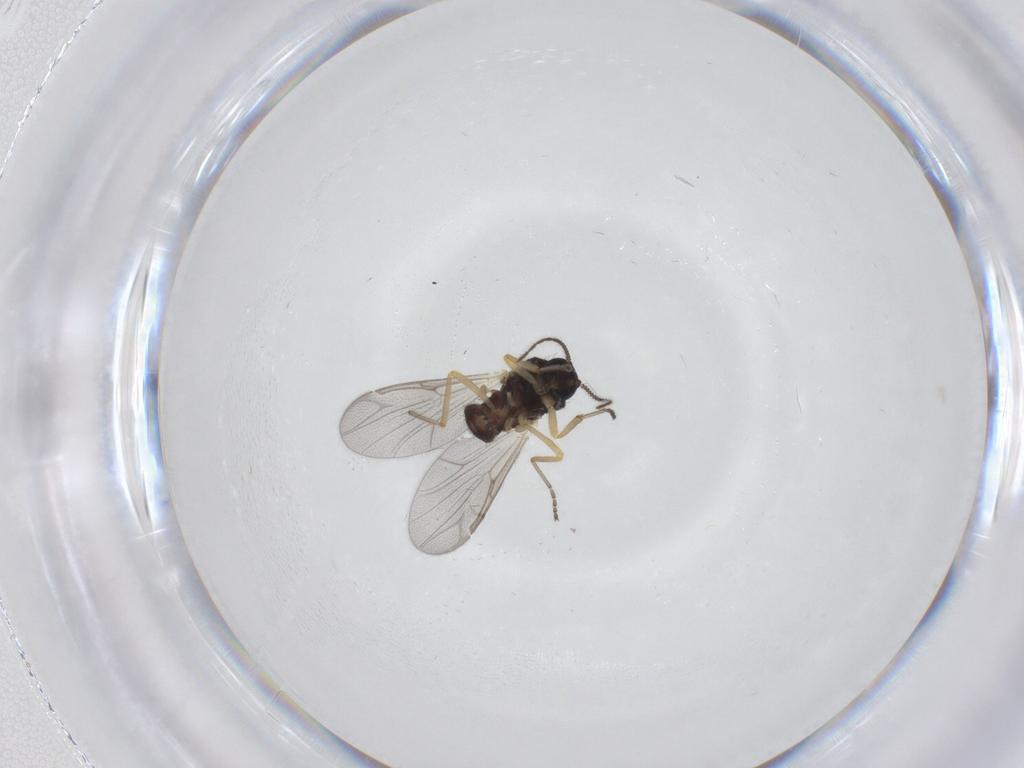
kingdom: Animalia
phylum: Arthropoda
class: Insecta
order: Diptera
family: Ceratopogonidae
